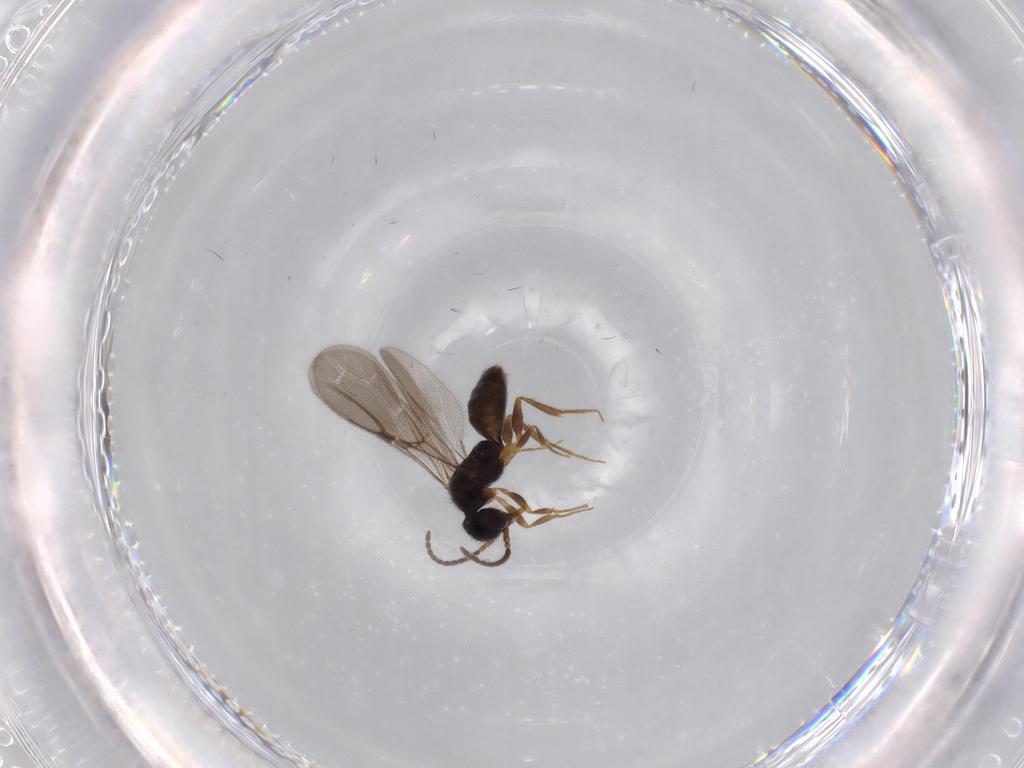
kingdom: Animalia
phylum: Arthropoda
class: Insecta
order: Hymenoptera
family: Bethylidae
